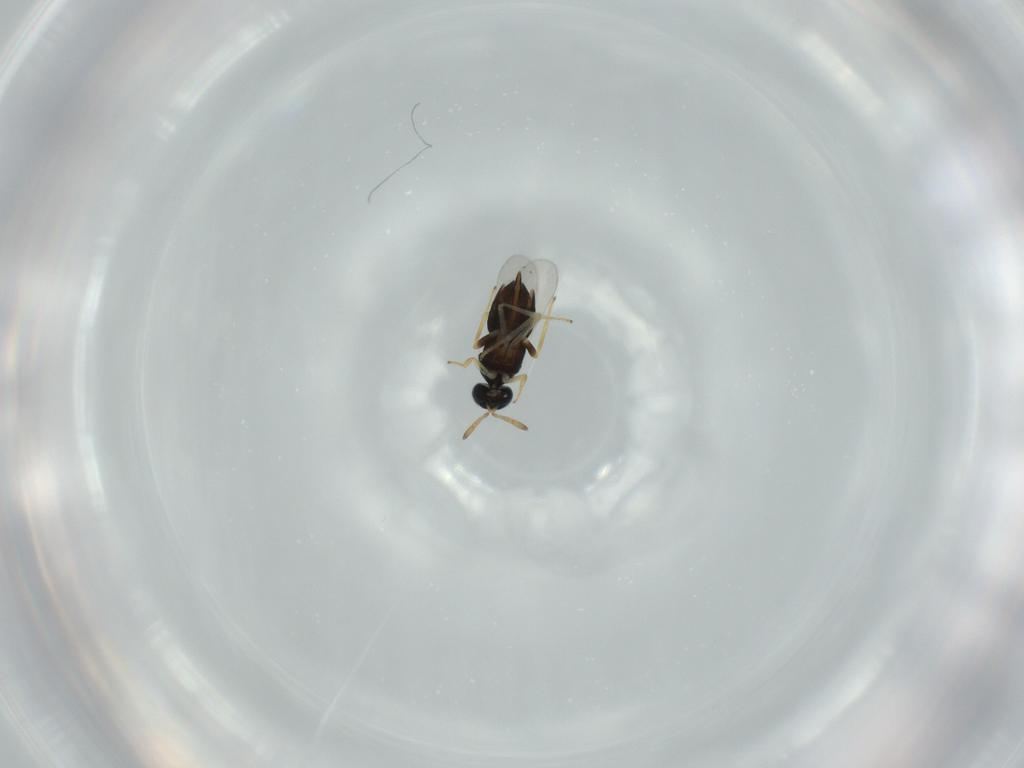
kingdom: Animalia
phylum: Arthropoda
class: Insecta
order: Hymenoptera
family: Encyrtidae
